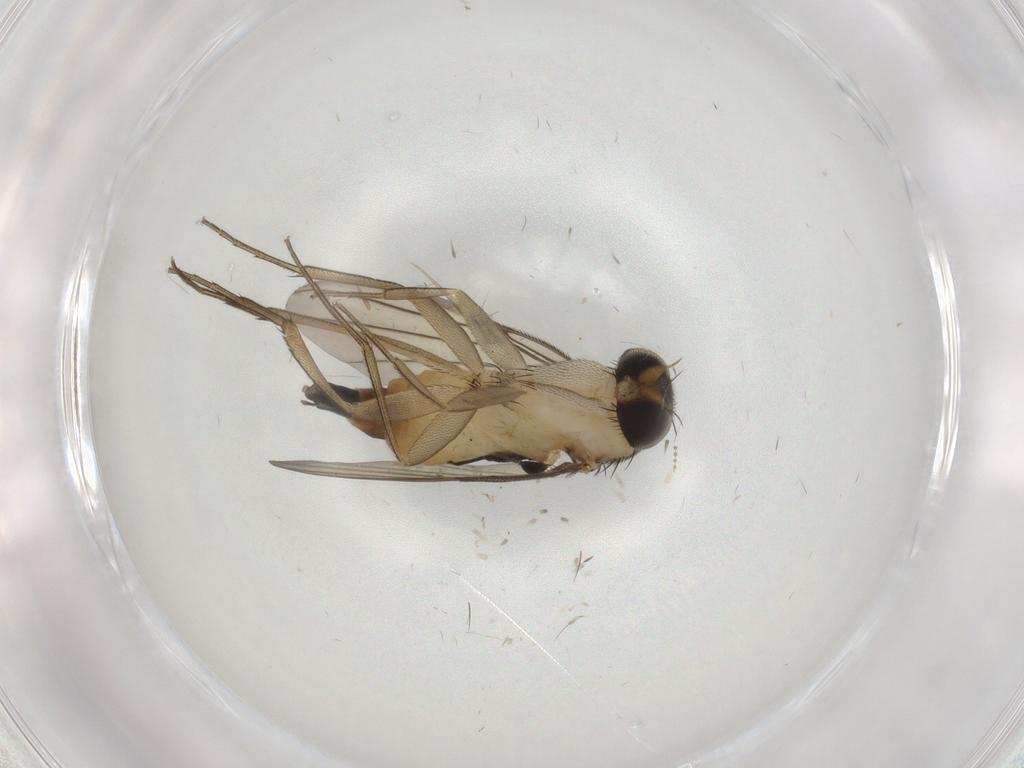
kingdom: Animalia
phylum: Arthropoda
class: Insecta
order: Diptera
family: Phoridae
